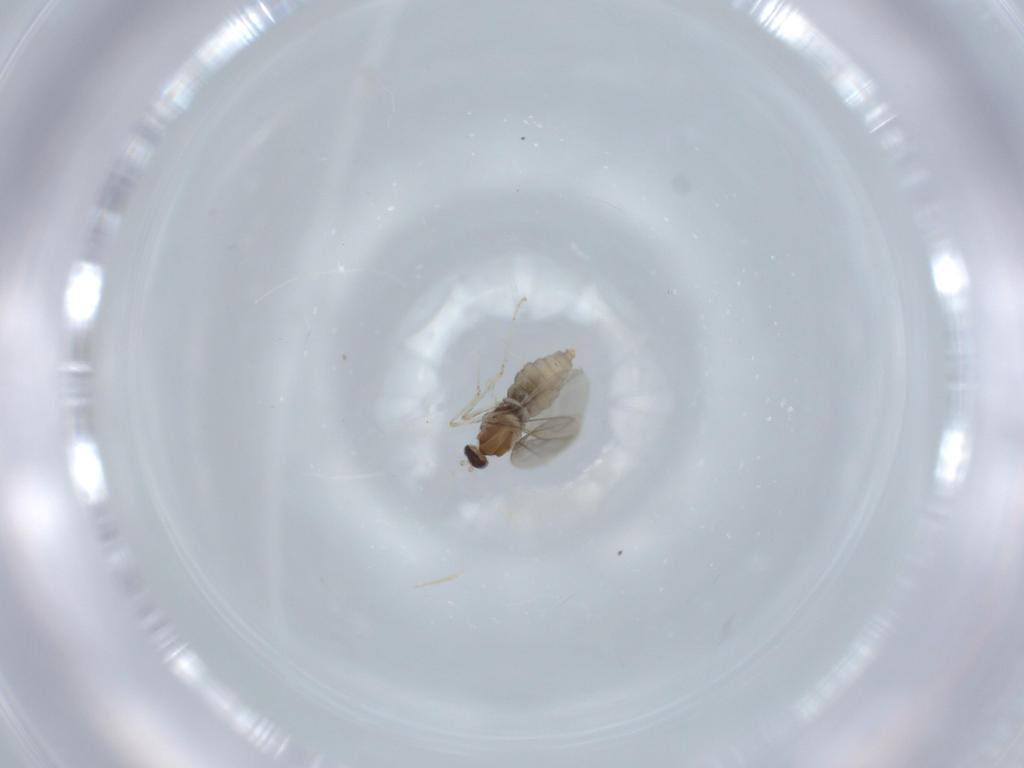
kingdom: Animalia
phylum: Arthropoda
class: Insecta
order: Diptera
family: Cecidomyiidae
